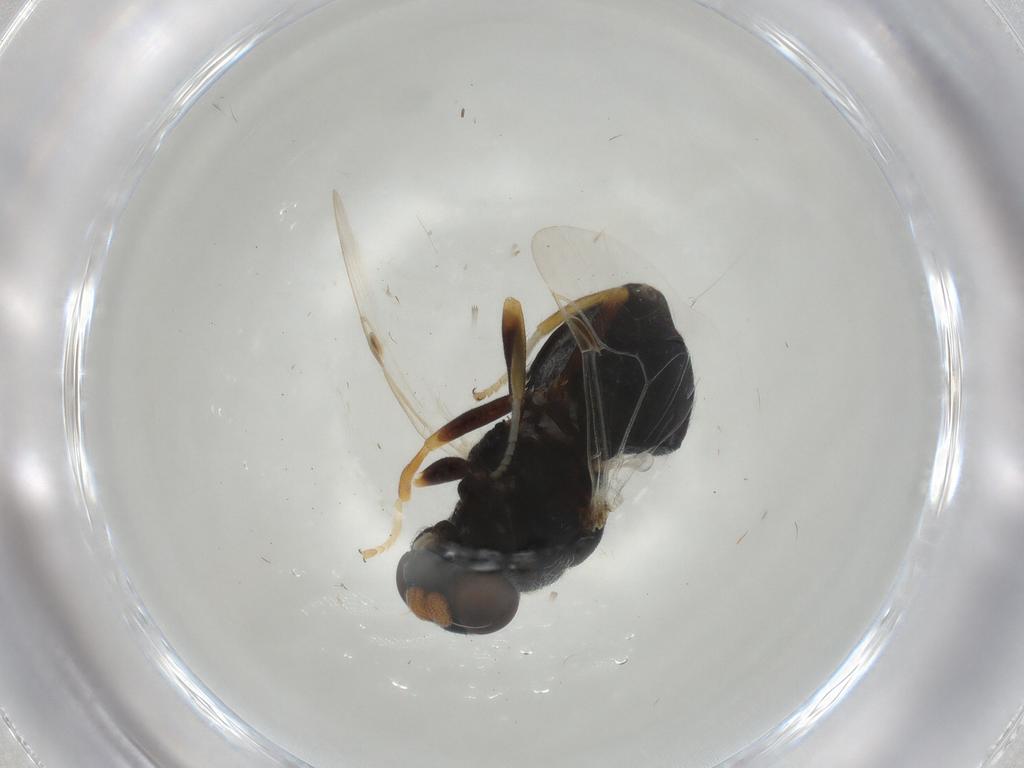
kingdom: Animalia
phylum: Arthropoda
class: Insecta
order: Diptera
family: Stratiomyidae
